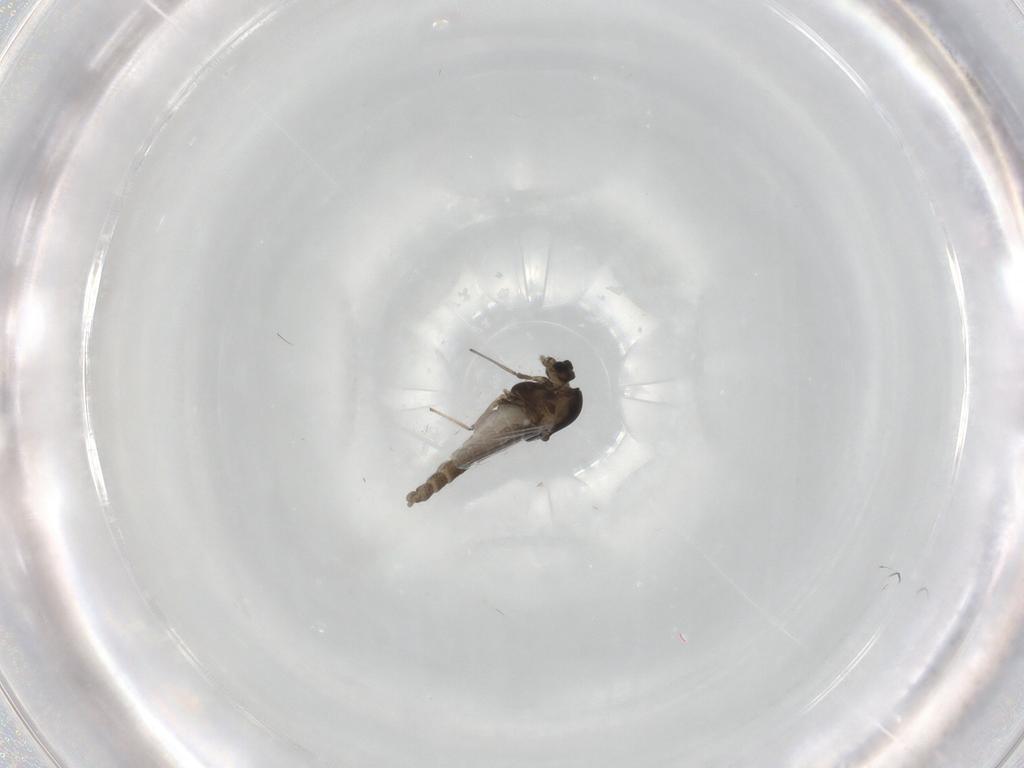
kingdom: Animalia
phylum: Arthropoda
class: Insecta
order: Diptera
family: Chironomidae
